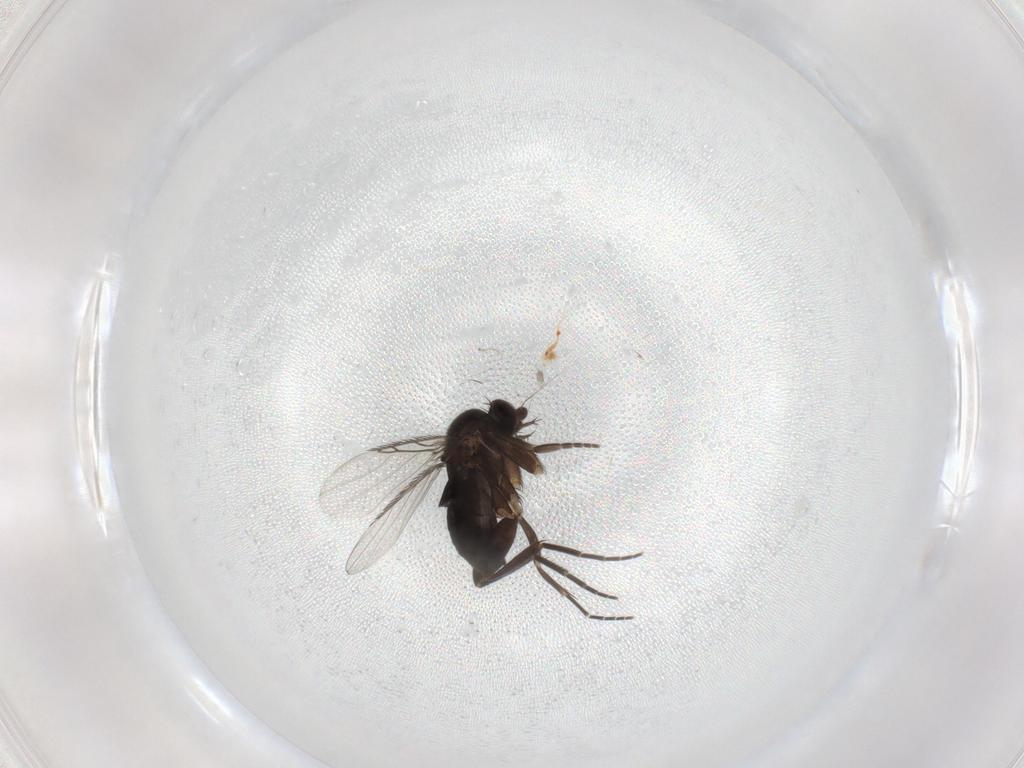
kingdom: Animalia
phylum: Arthropoda
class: Insecta
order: Diptera
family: Phoridae
